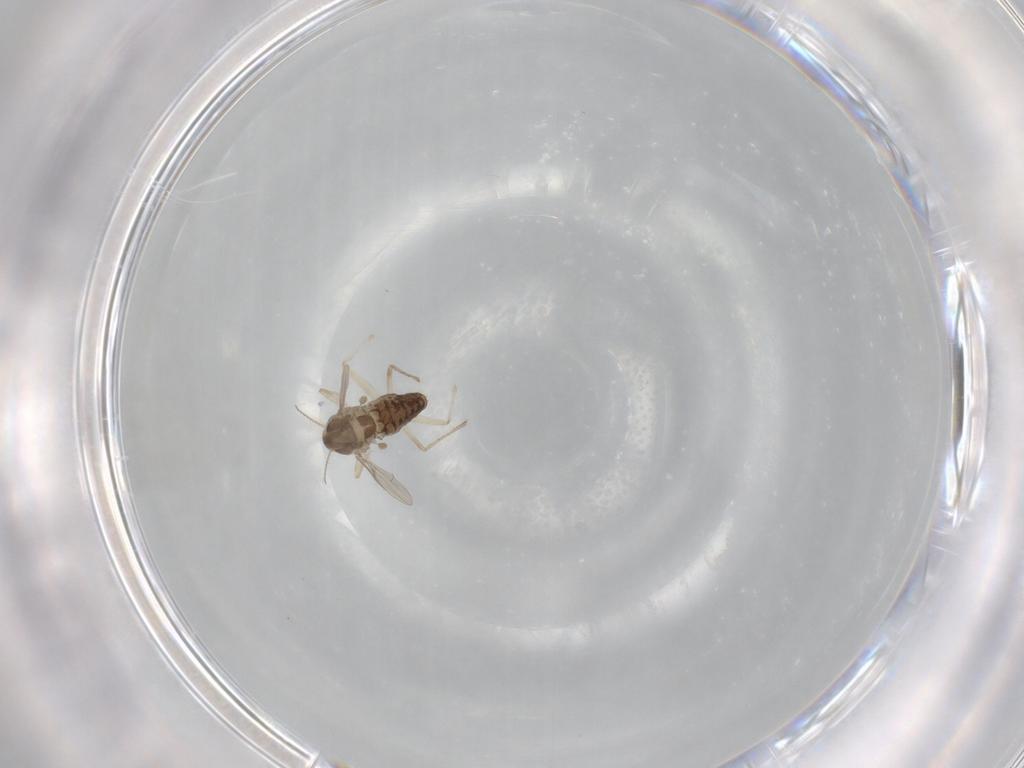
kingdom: Animalia
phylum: Arthropoda
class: Insecta
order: Diptera
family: Chironomidae
